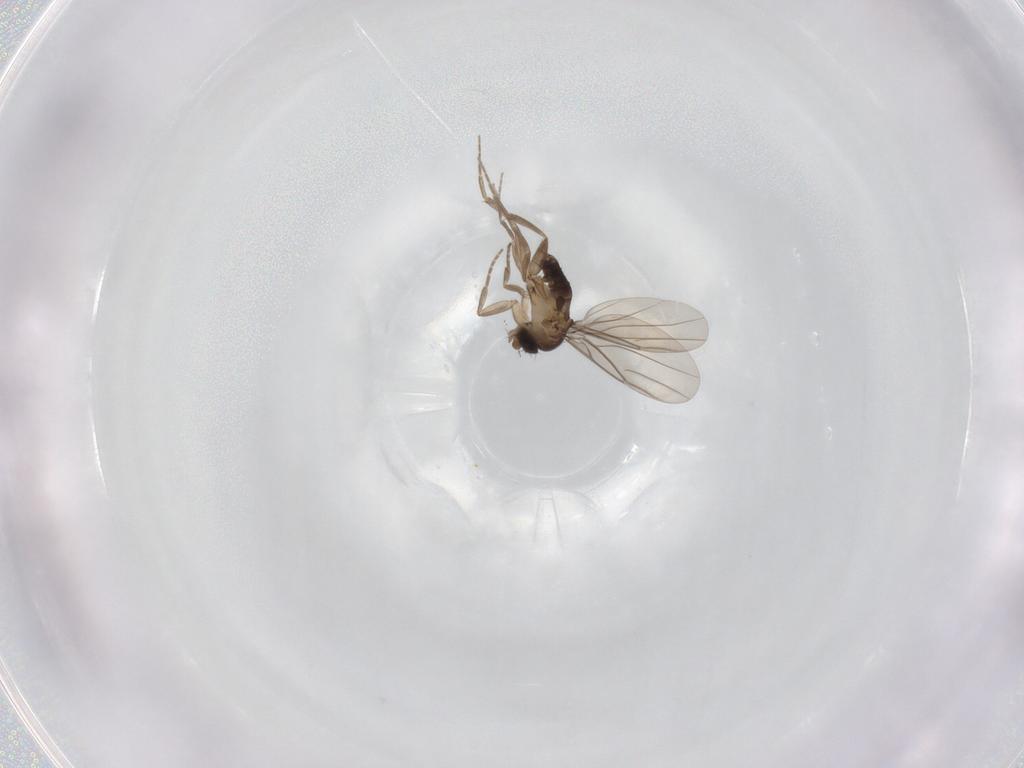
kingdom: Animalia
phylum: Arthropoda
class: Insecta
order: Diptera
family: Phoridae
